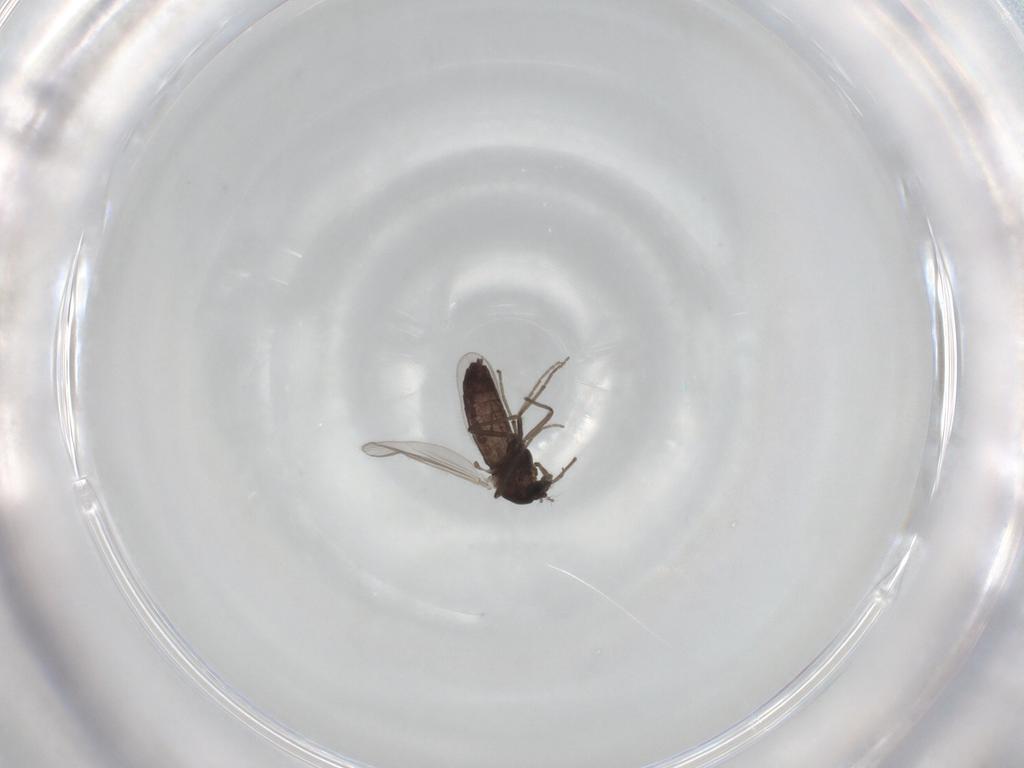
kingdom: Animalia
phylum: Arthropoda
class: Insecta
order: Diptera
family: Chironomidae
